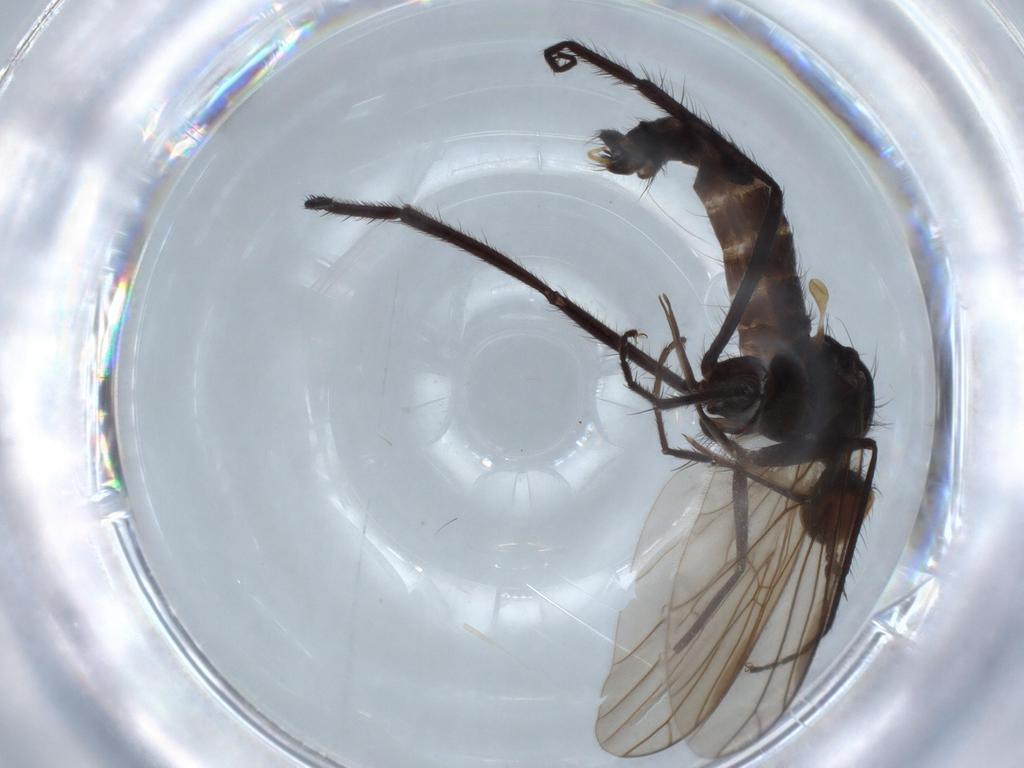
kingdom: Animalia
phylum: Arthropoda
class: Insecta
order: Diptera
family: Empididae
